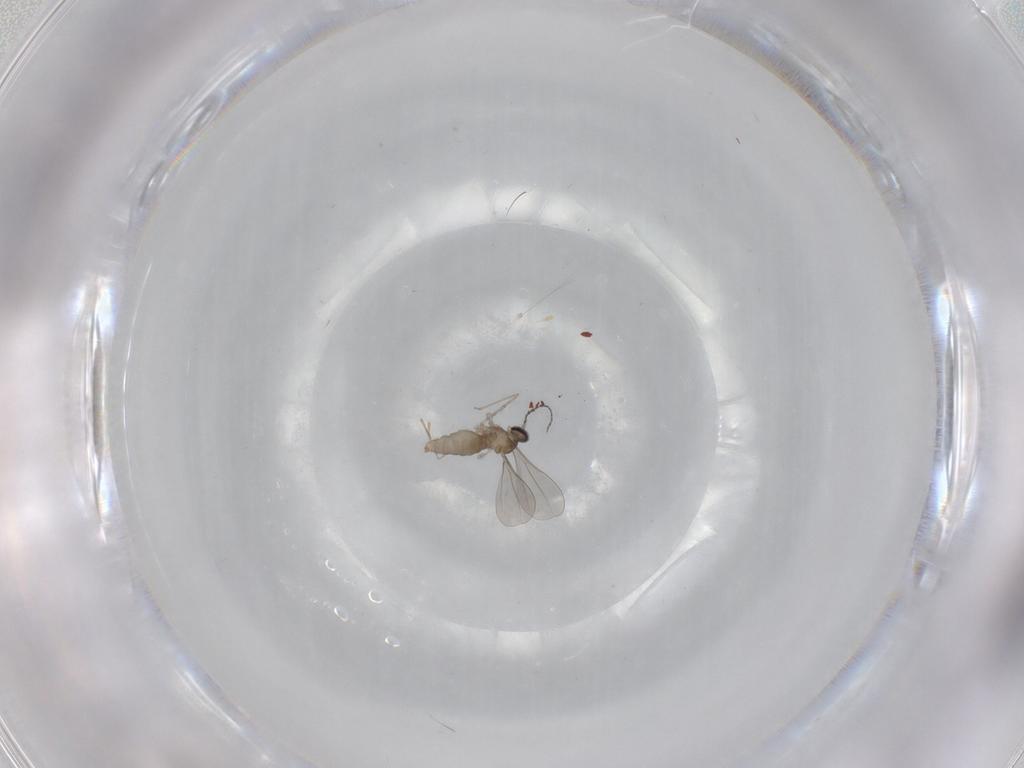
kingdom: Animalia
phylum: Arthropoda
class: Insecta
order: Diptera
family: Cecidomyiidae
